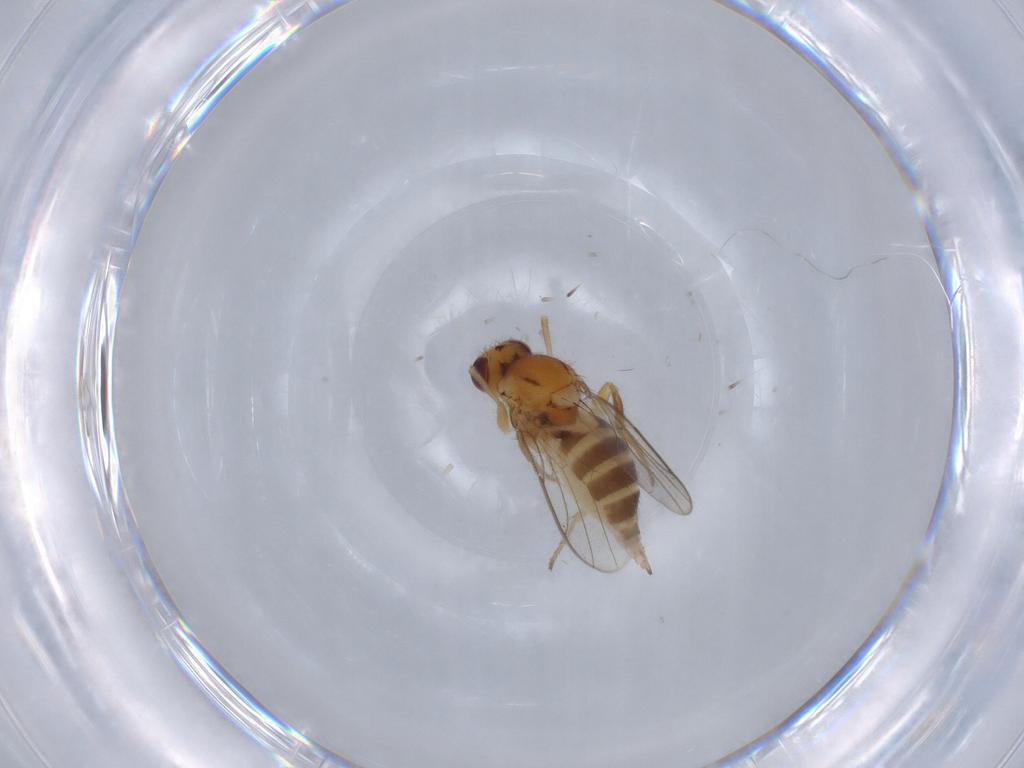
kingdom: Animalia
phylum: Arthropoda
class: Insecta
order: Diptera
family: Chloropidae
